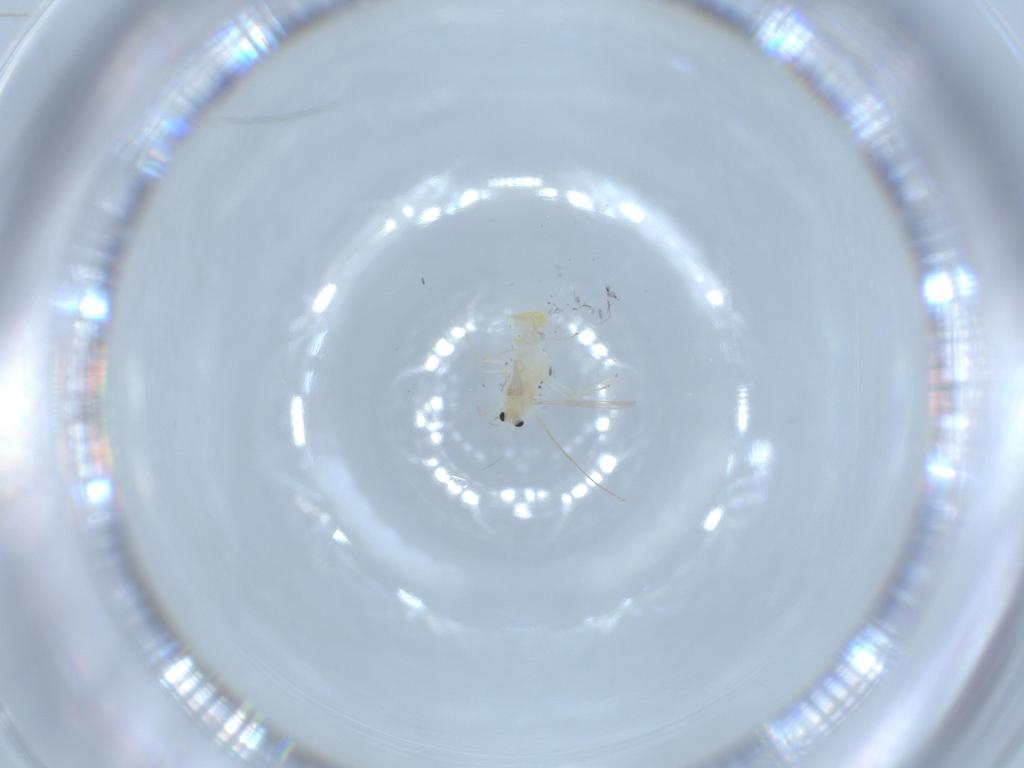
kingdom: Animalia
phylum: Arthropoda
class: Insecta
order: Diptera
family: Chironomidae
